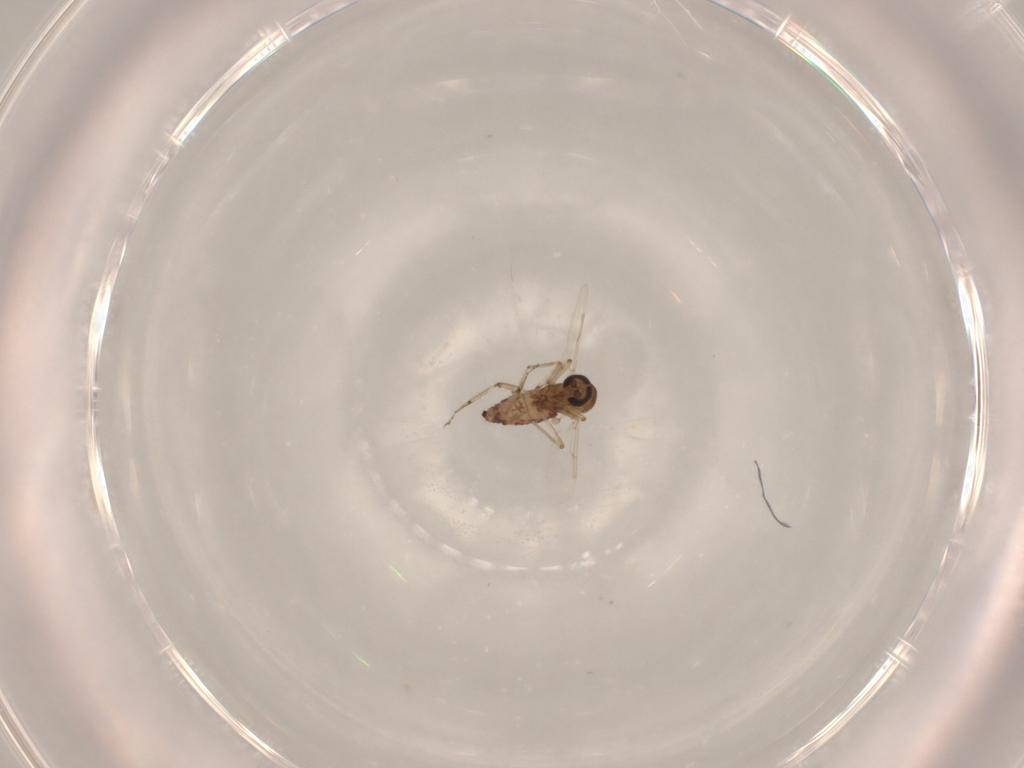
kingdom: Animalia
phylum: Arthropoda
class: Insecta
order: Diptera
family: Ceratopogonidae
